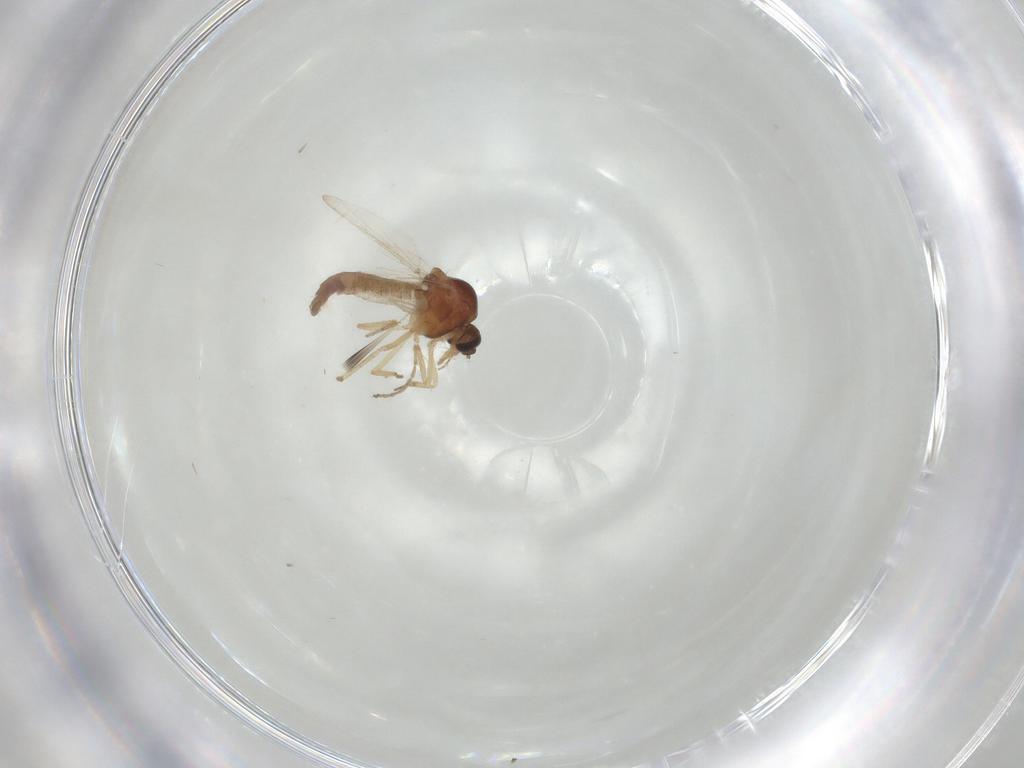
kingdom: Animalia
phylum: Arthropoda
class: Insecta
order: Diptera
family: Ceratopogonidae
